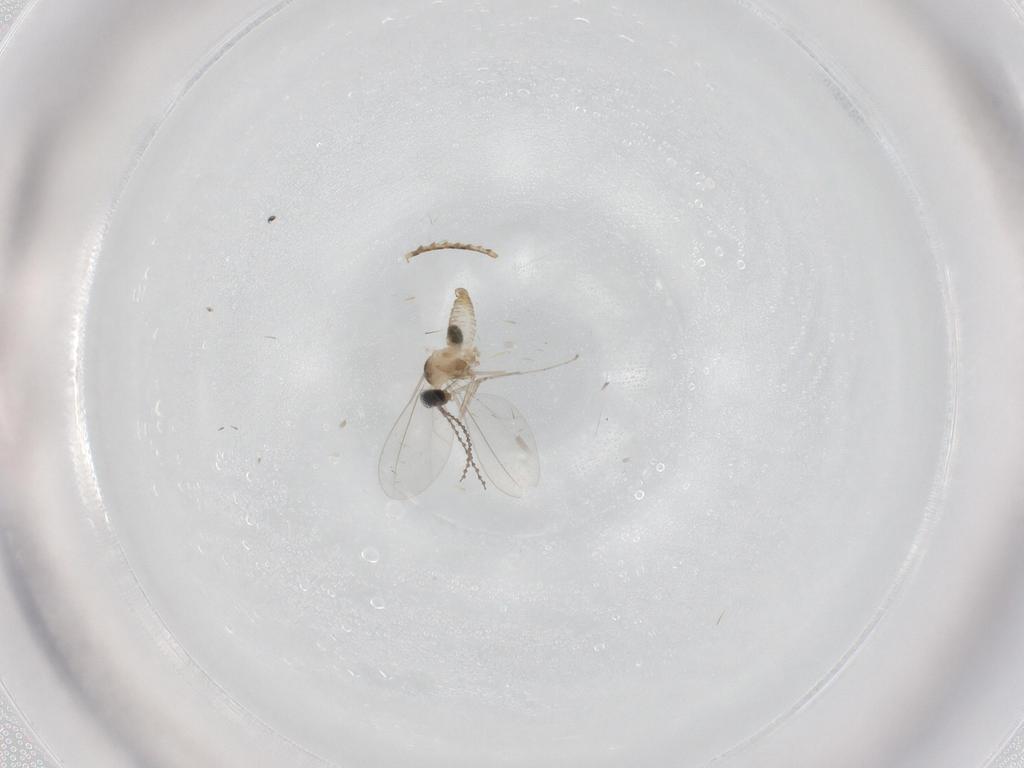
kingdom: Animalia
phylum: Arthropoda
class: Insecta
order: Diptera
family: Cecidomyiidae
